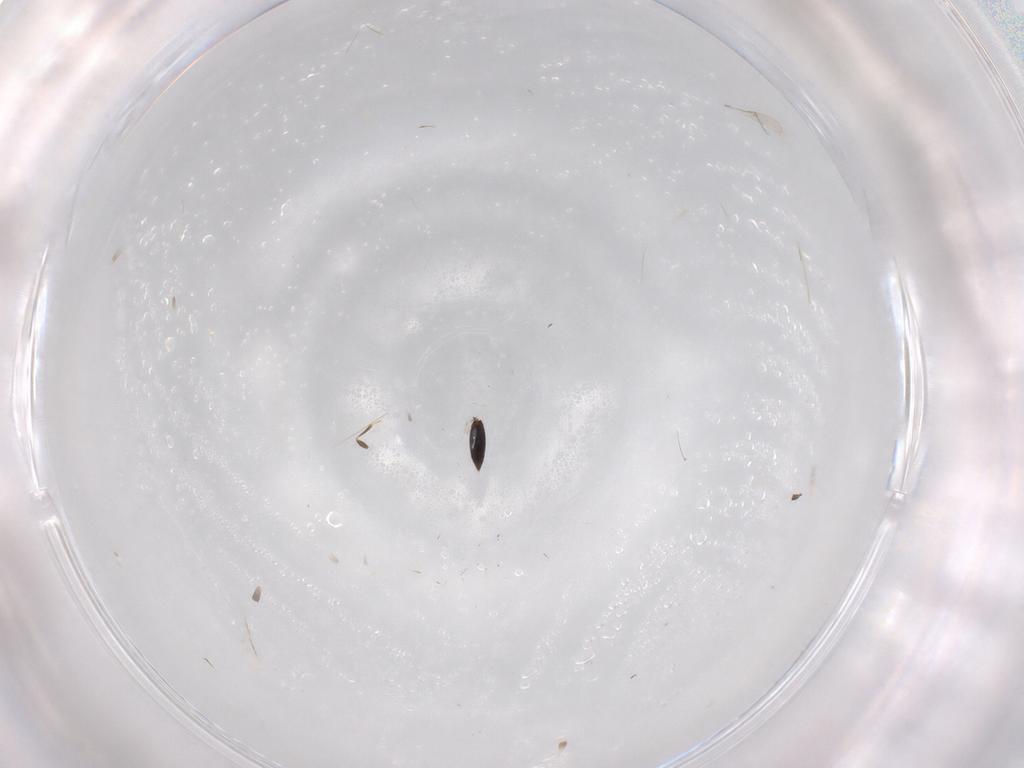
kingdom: Animalia
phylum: Arthropoda
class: Insecta
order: Hymenoptera
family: Scelionidae
